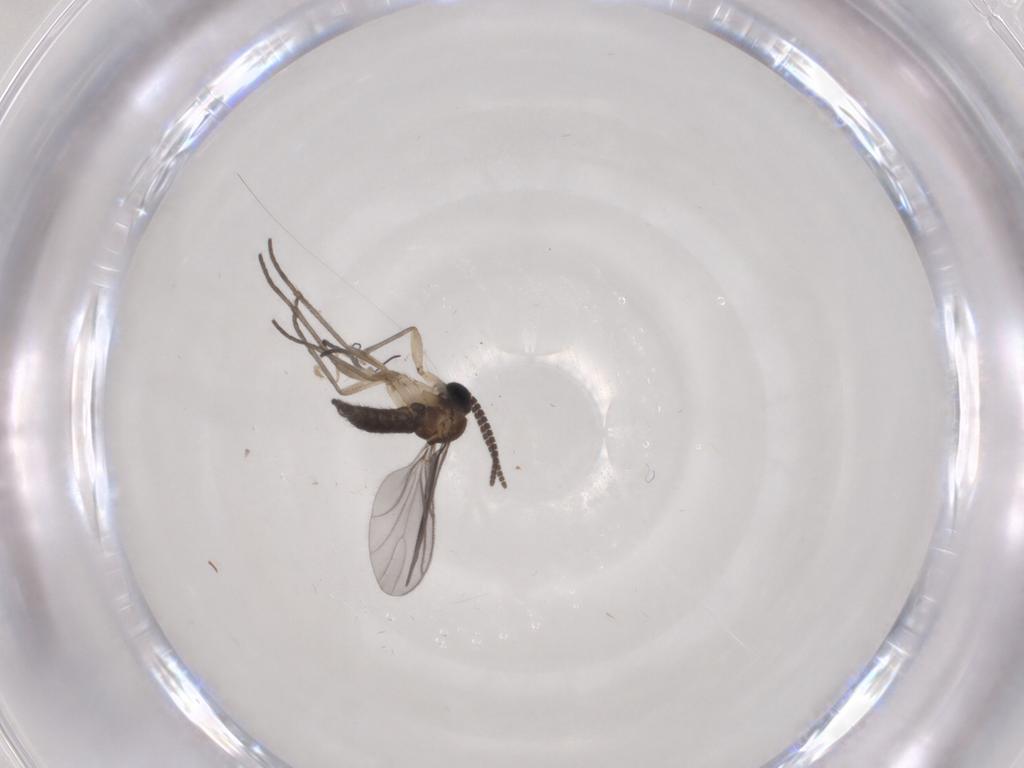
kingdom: Animalia
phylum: Arthropoda
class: Insecta
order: Diptera
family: Sciaridae
